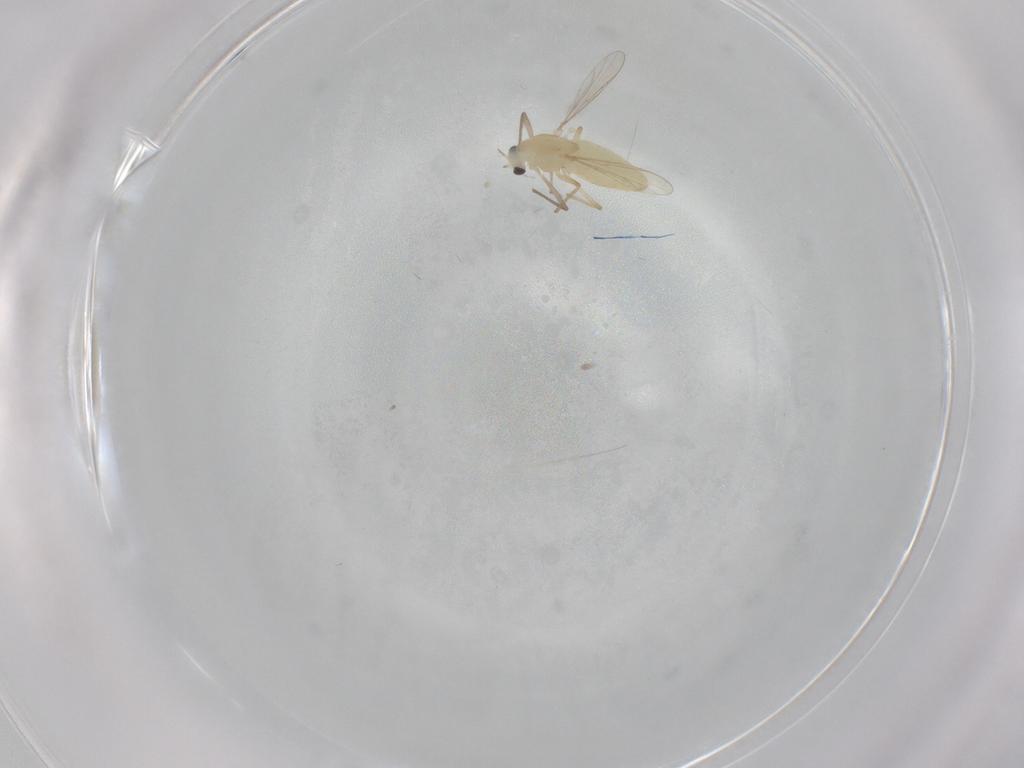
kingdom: Animalia
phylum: Arthropoda
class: Insecta
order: Diptera
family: Chironomidae
